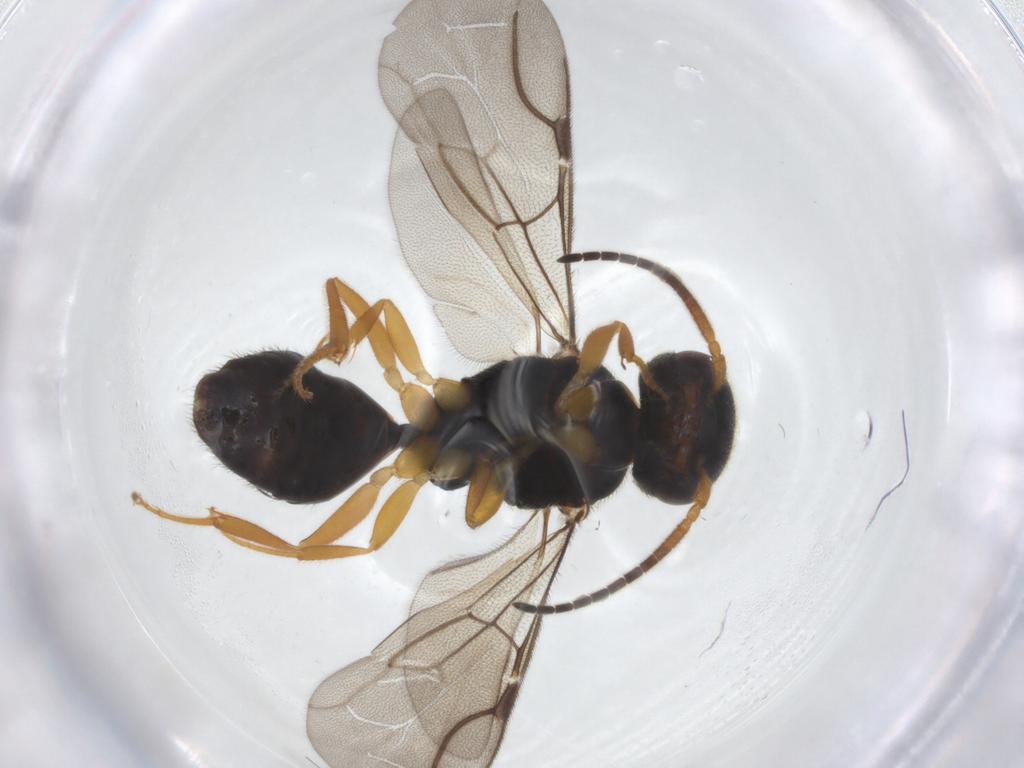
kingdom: Animalia
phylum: Arthropoda
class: Insecta
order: Hymenoptera
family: Bethylidae
